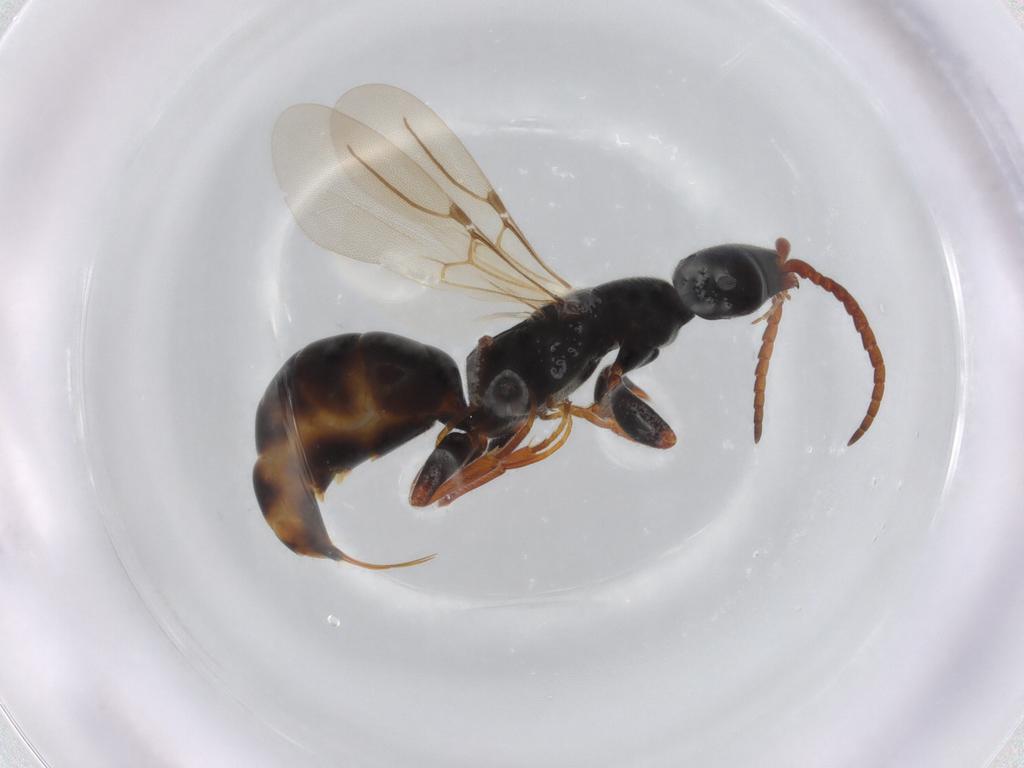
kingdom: Animalia
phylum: Arthropoda
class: Insecta
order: Hymenoptera
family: Bethylidae
